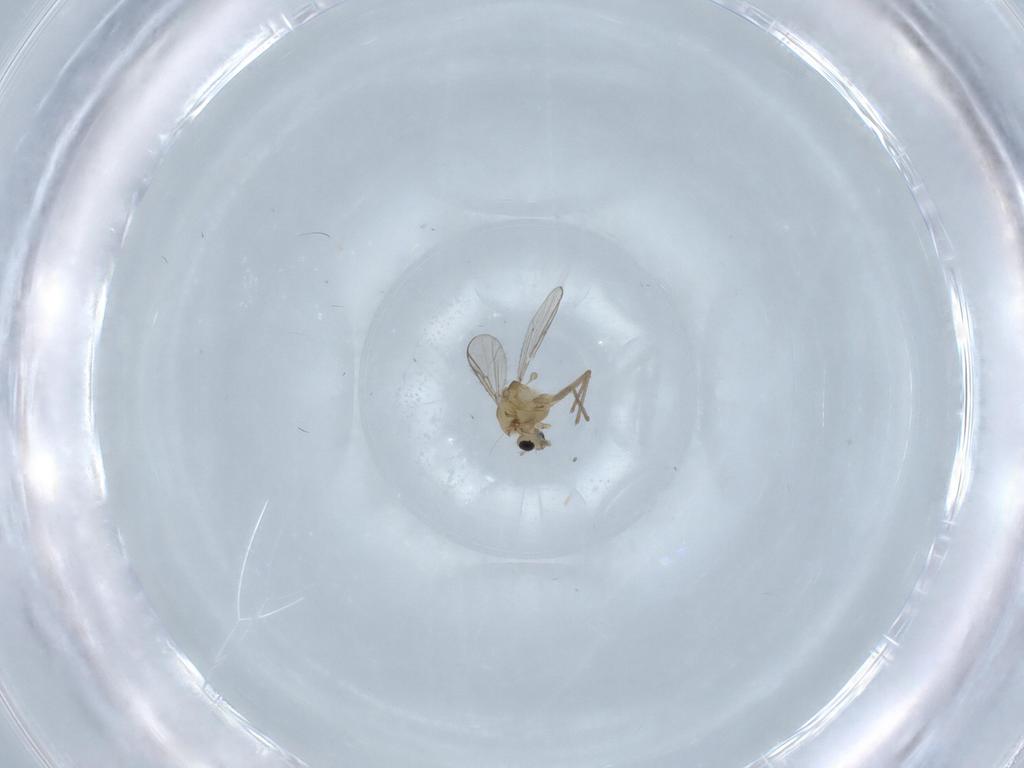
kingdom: Animalia
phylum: Arthropoda
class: Insecta
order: Diptera
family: Chironomidae
